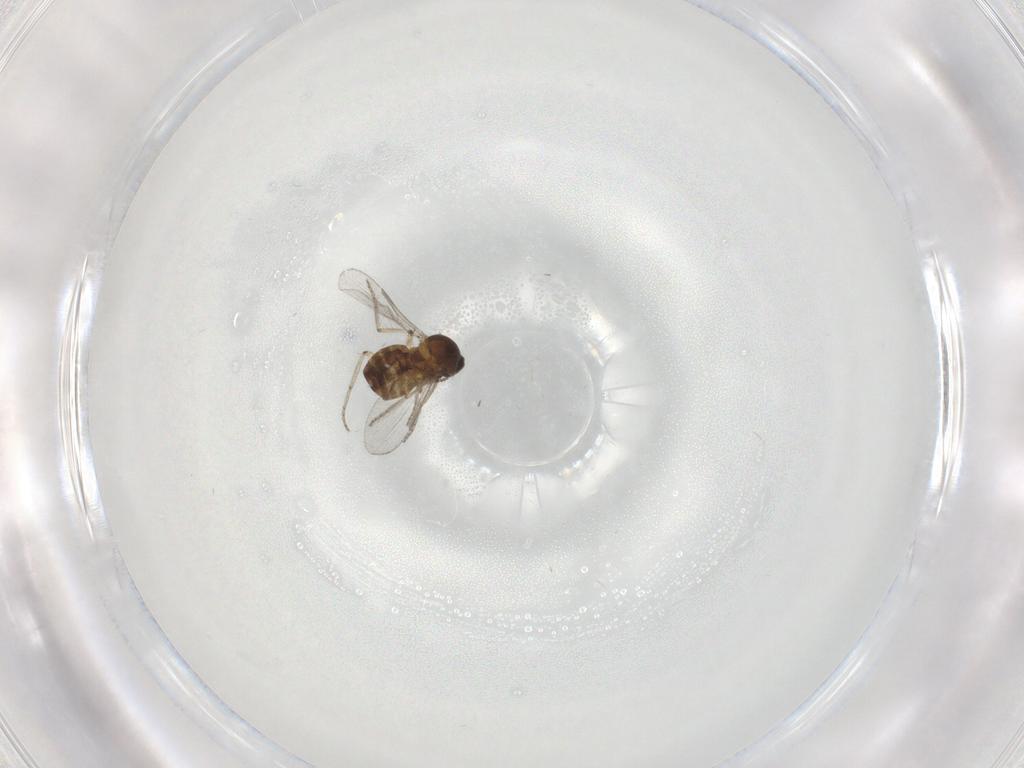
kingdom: Animalia
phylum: Arthropoda
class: Insecta
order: Diptera
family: Ceratopogonidae
